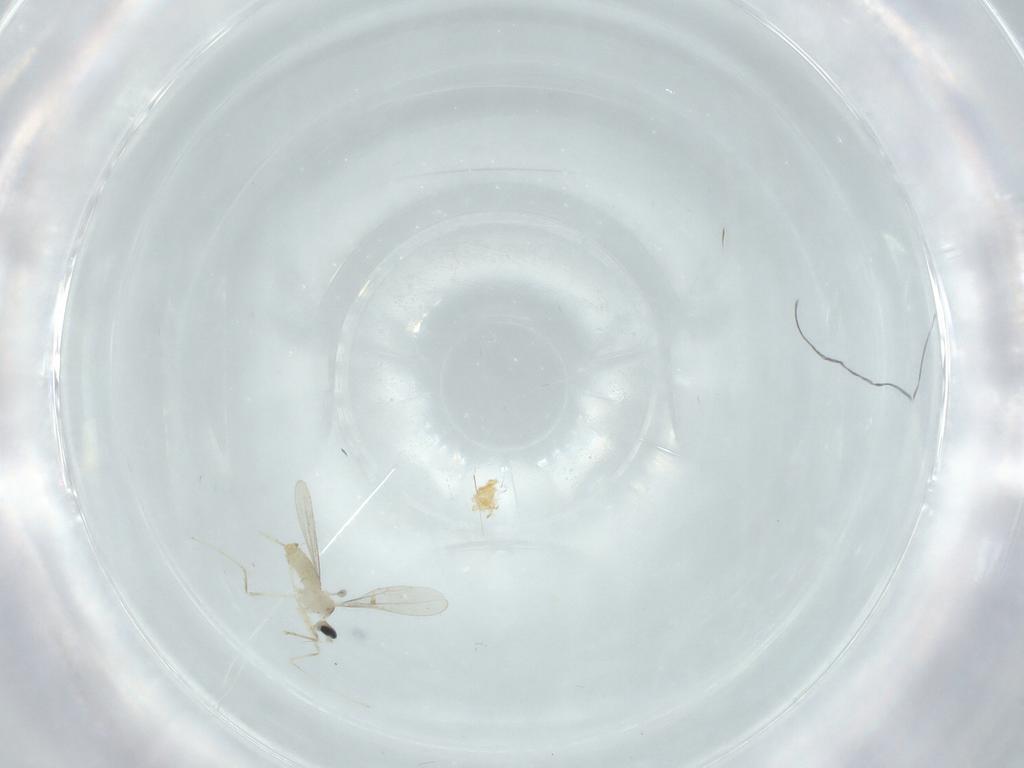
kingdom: Animalia
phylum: Arthropoda
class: Insecta
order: Diptera
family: Cecidomyiidae
